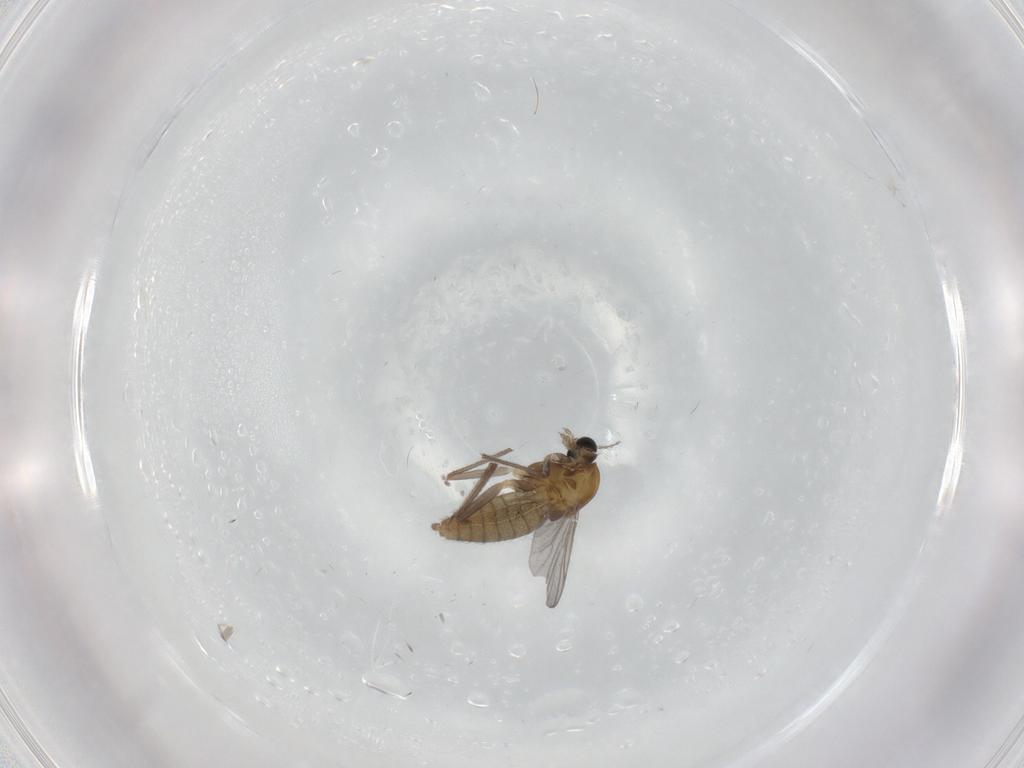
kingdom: Animalia
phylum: Arthropoda
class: Insecta
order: Diptera
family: Chironomidae
